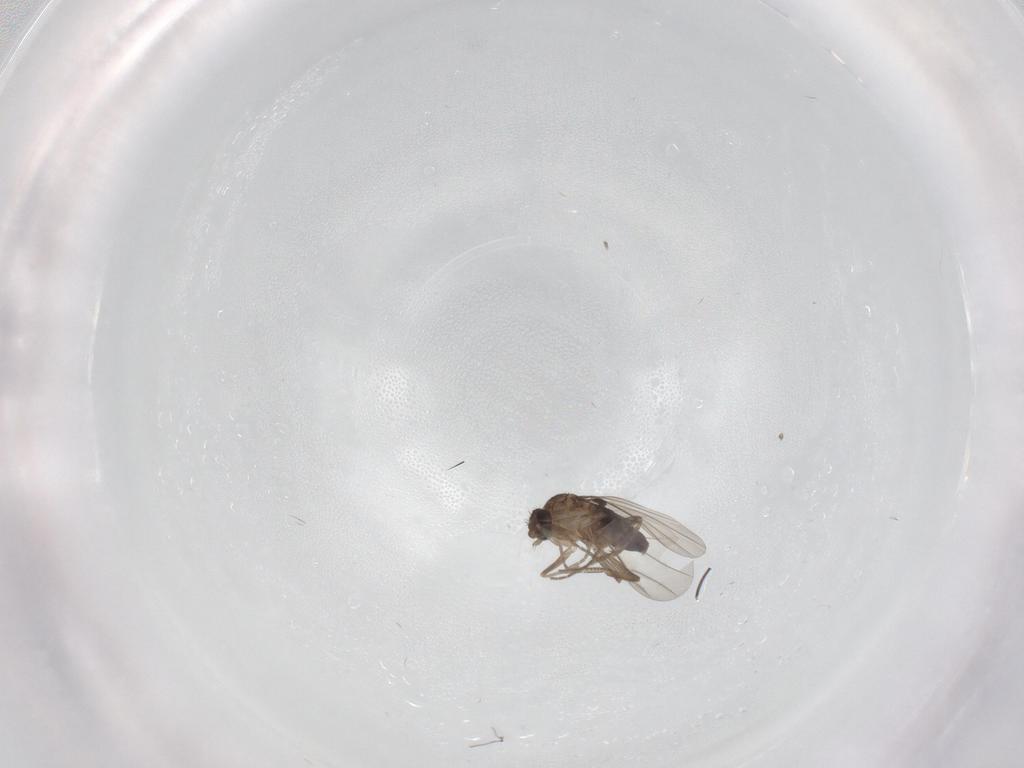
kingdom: Animalia
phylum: Arthropoda
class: Insecta
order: Diptera
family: Phoridae
